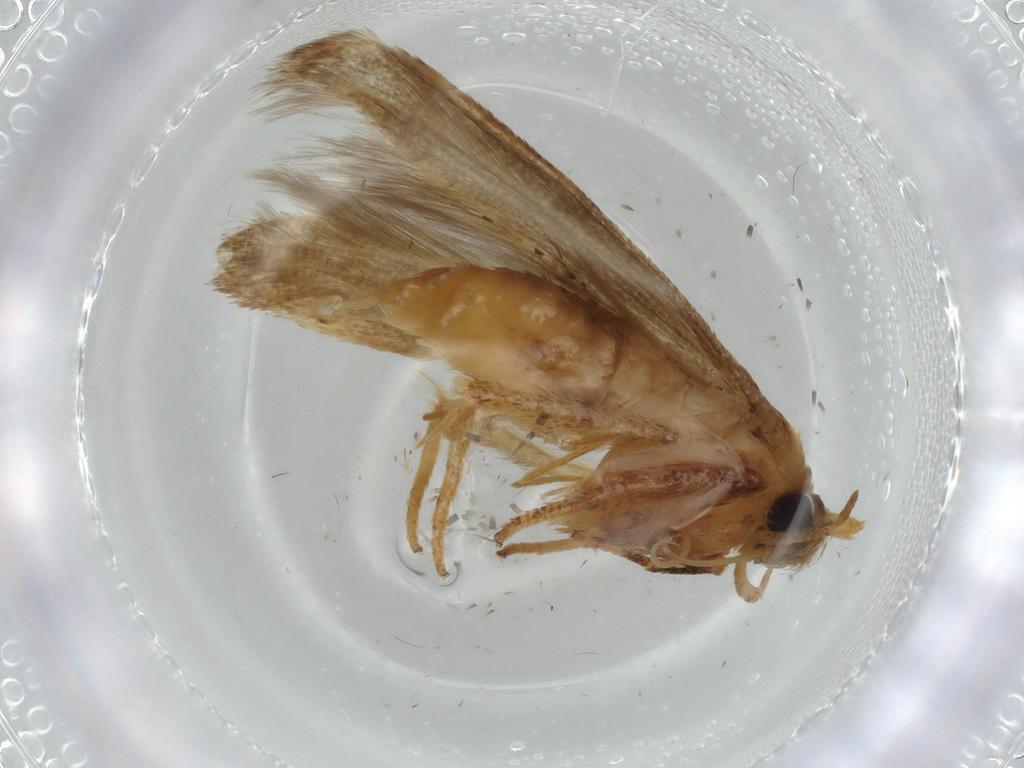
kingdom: Animalia
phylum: Arthropoda
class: Insecta
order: Lepidoptera
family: Coleophoridae
